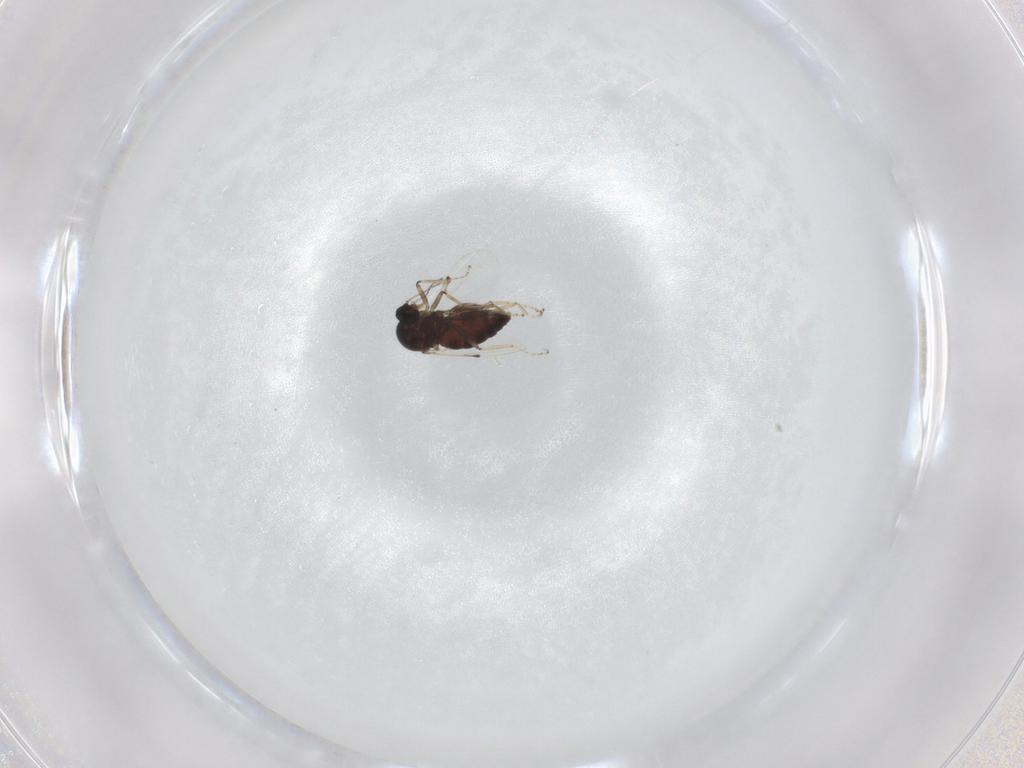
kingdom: Animalia
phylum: Arthropoda
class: Insecta
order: Diptera
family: Ceratopogonidae
